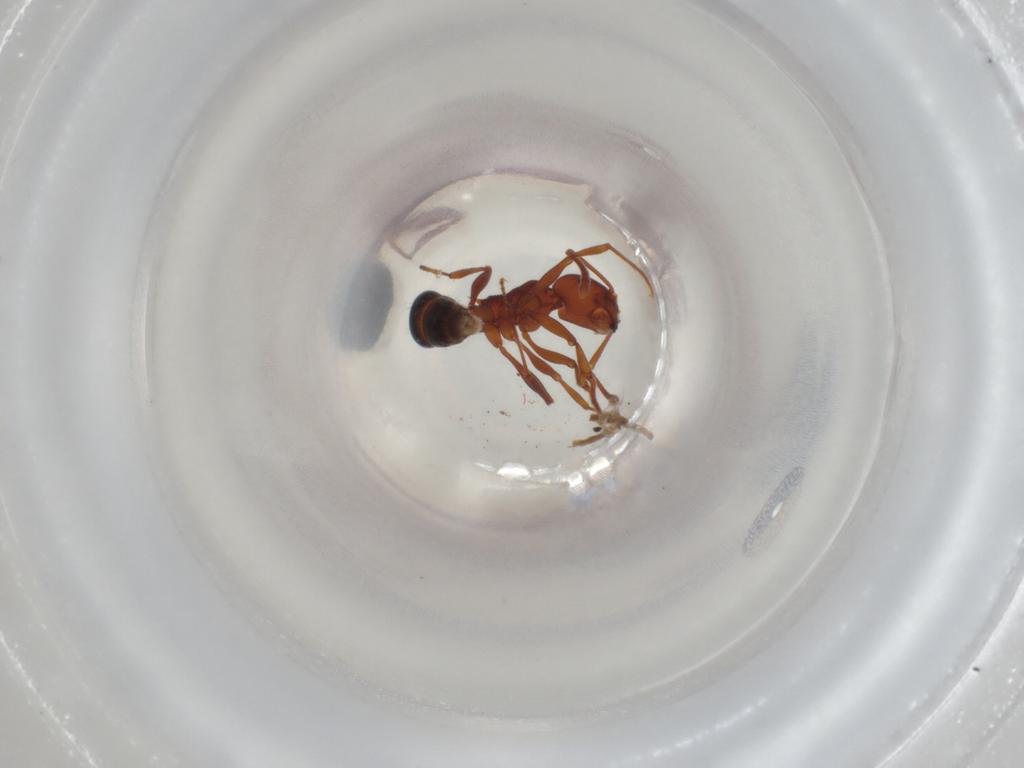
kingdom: Animalia
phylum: Arthropoda
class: Insecta
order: Hymenoptera
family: Formicidae
